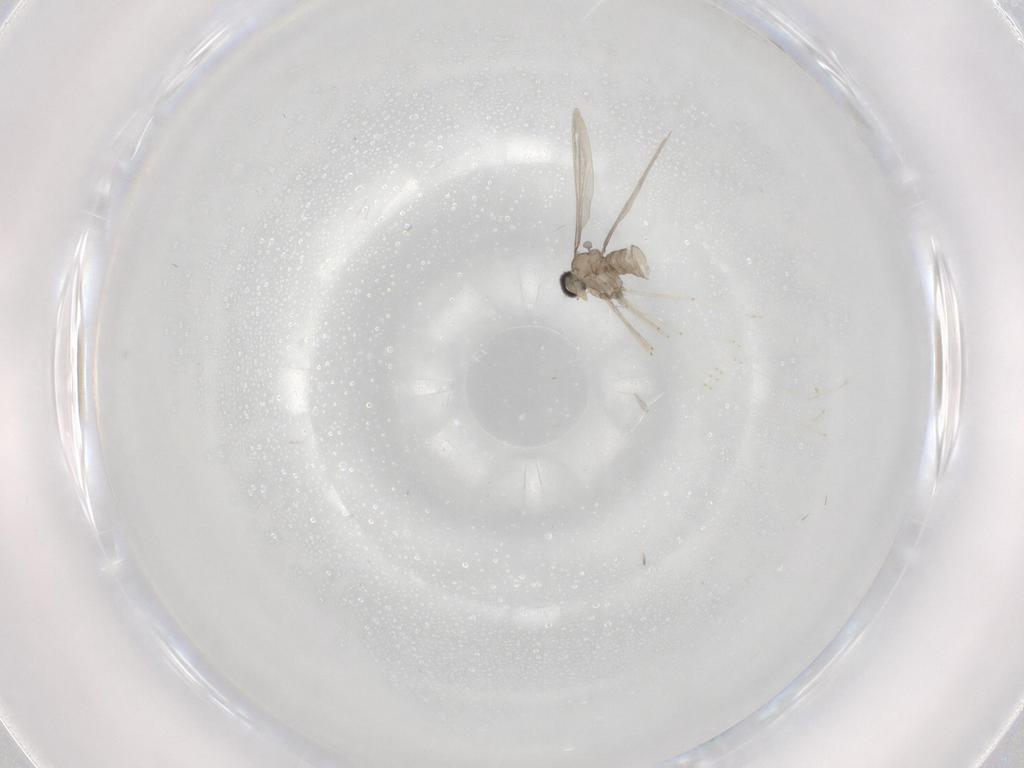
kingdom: Animalia
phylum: Arthropoda
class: Insecta
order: Diptera
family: Cecidomyiidae
